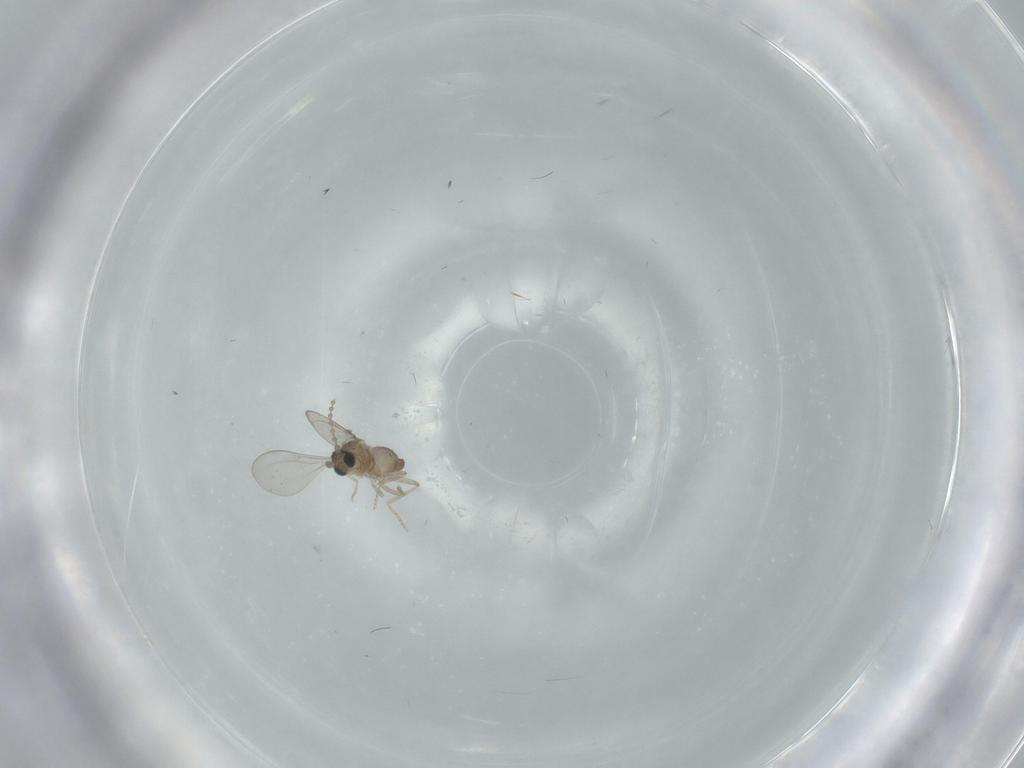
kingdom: Animalia
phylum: Arthropoda
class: Insecta
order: Diptera
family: Cecidomyiidae
